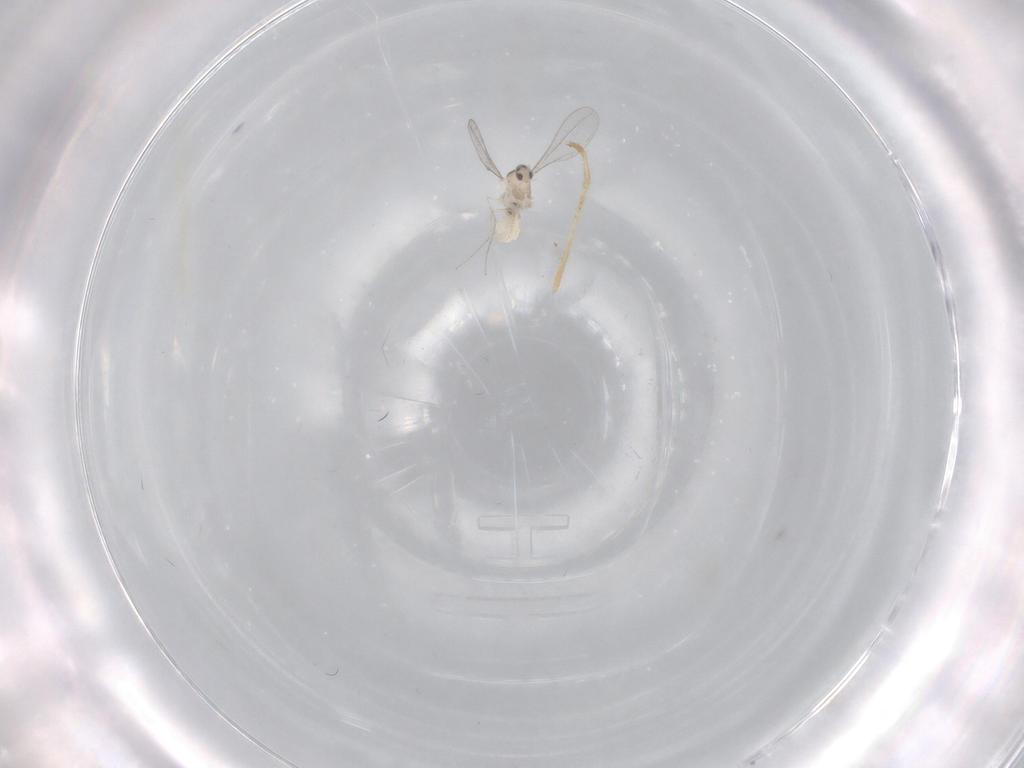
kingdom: Animalia
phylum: Arthropoda
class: Insecta
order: Diptera
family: Cecidomyiidae
